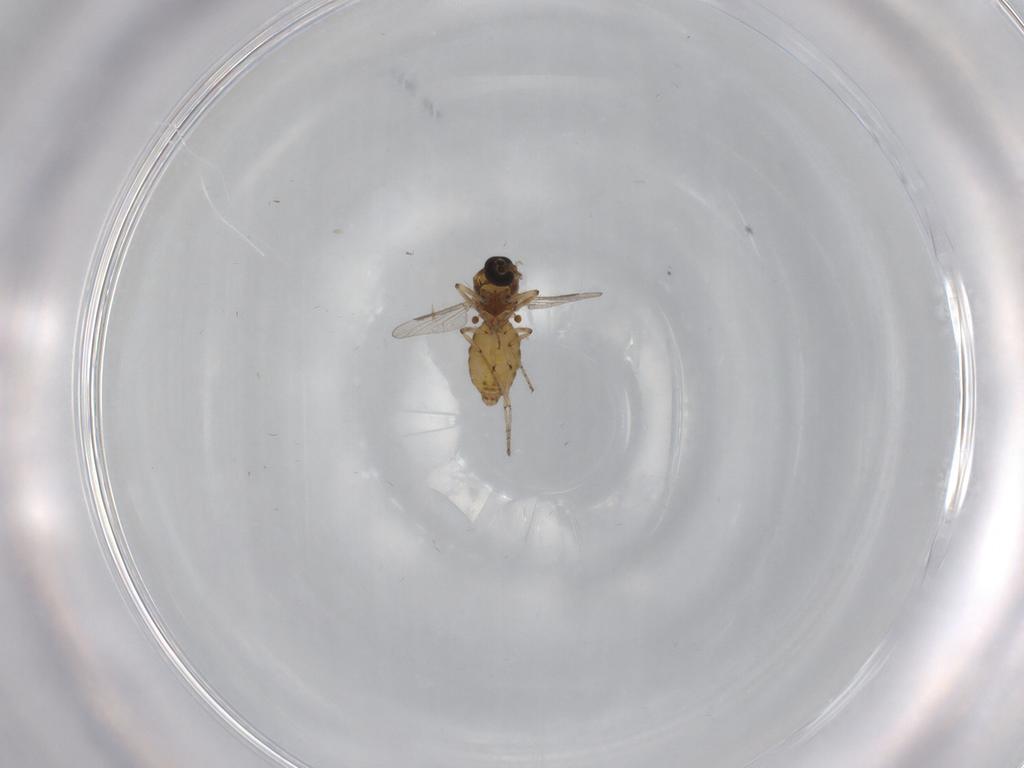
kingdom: Animalia
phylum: Arthropoda
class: Insecta
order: Diptera
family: Ceratopogonidae
